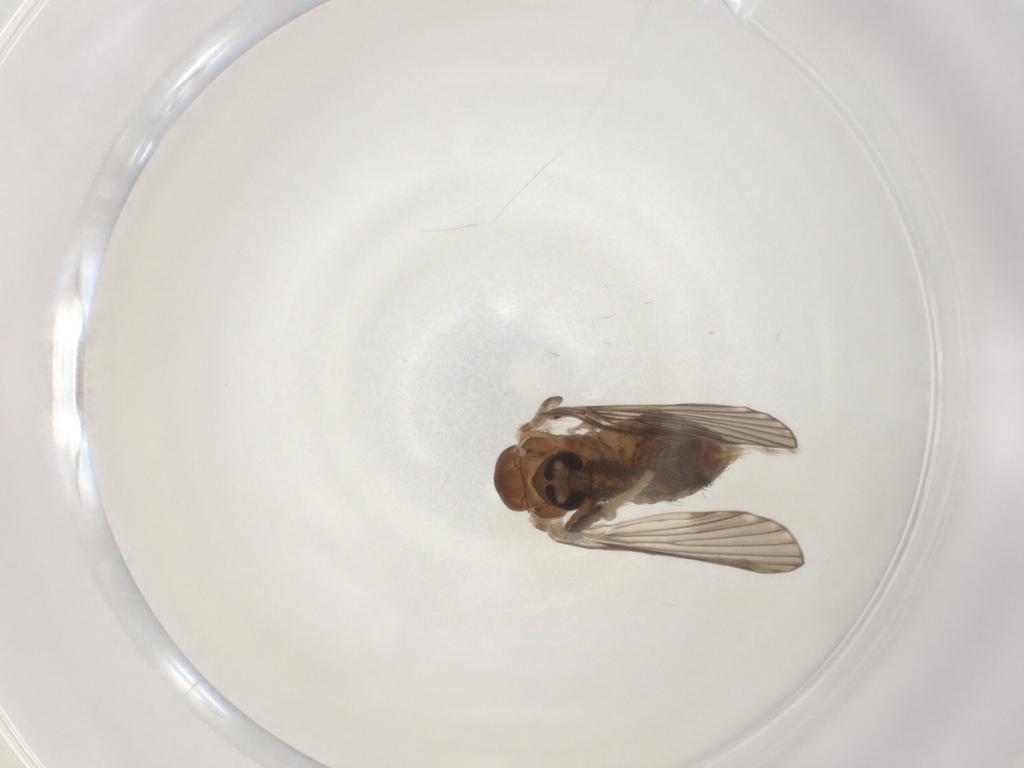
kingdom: Animalia
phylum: Arthropoda
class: Insecta
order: Diptera
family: Psychodidae
